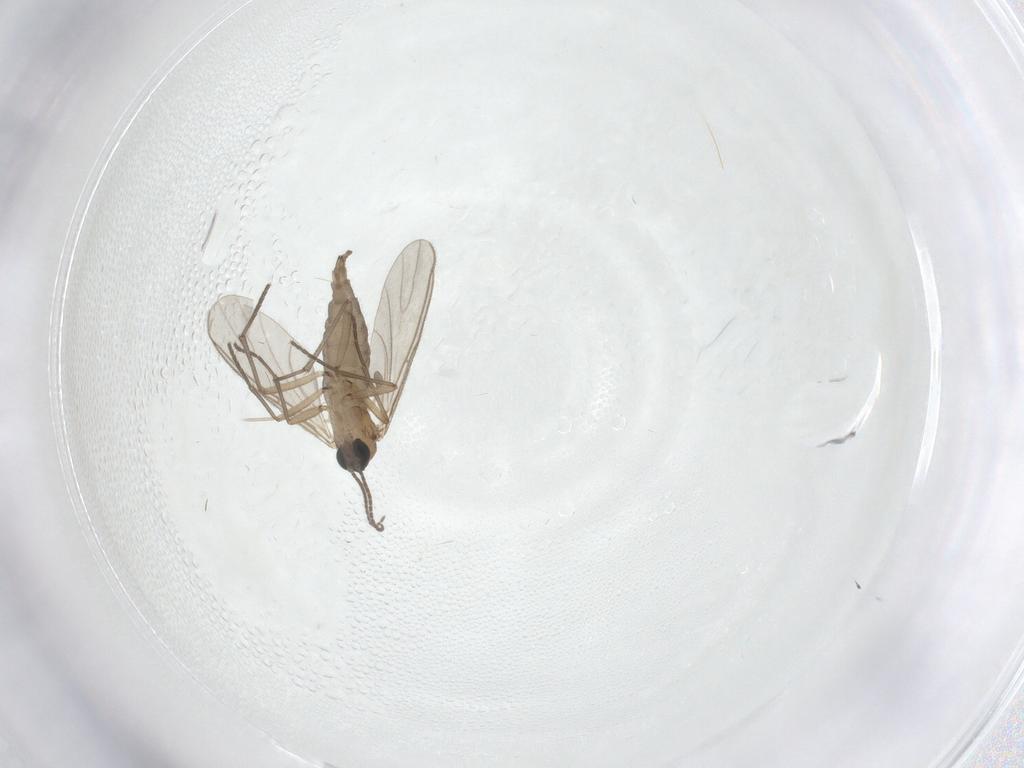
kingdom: Animalia
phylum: Arthropoda
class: Insecta
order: Diptera
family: Sciaridae
